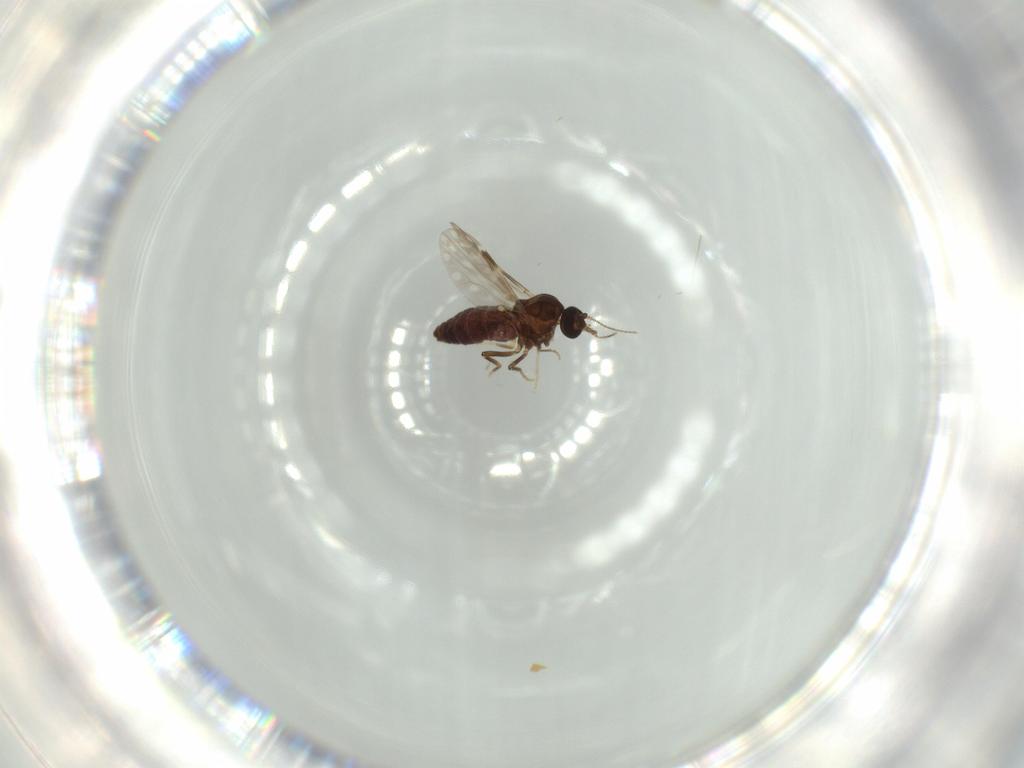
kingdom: Animalia
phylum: Arthropoda
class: Insecta
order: Diptera
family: Ceratopogonidae
